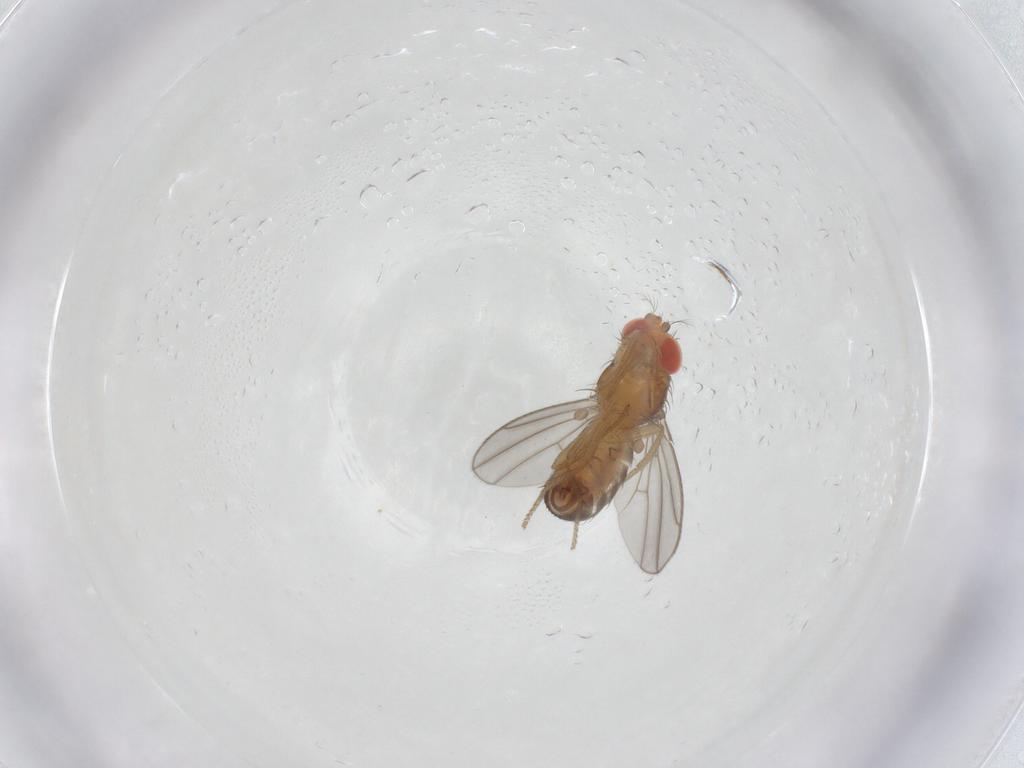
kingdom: Animalia
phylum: Arthropoda
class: Insecta
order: Diptera
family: Drosophilidae
